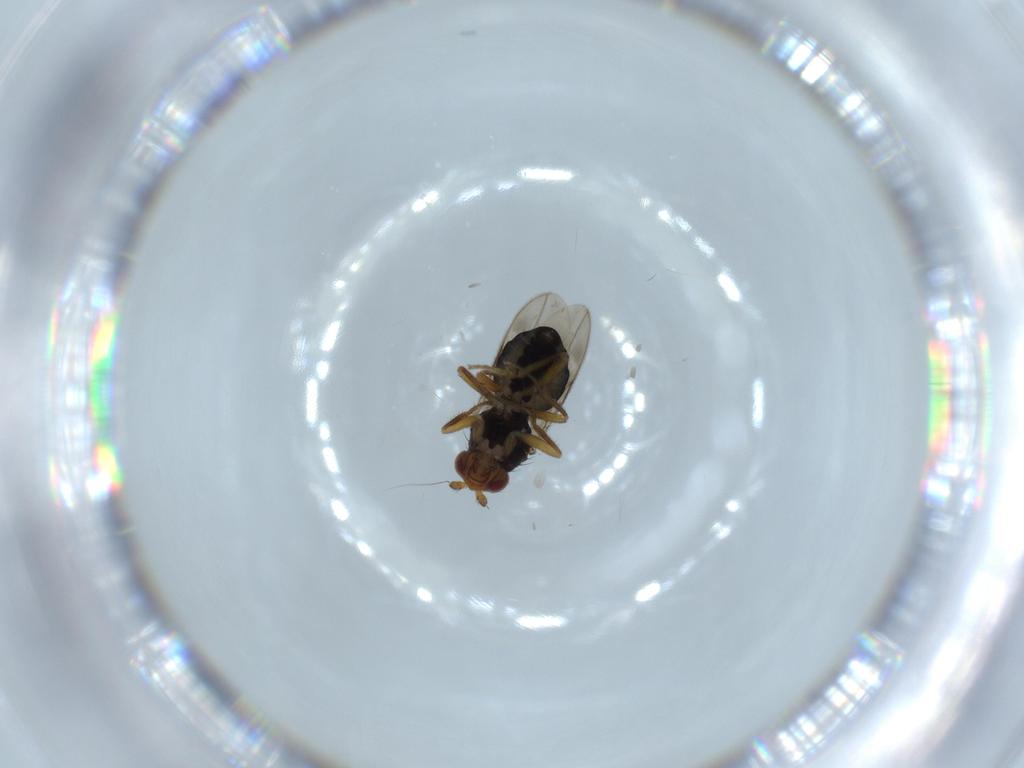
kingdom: Animalia
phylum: Arthropoda
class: Insecta
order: Diptera
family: Sphaeroceridae
